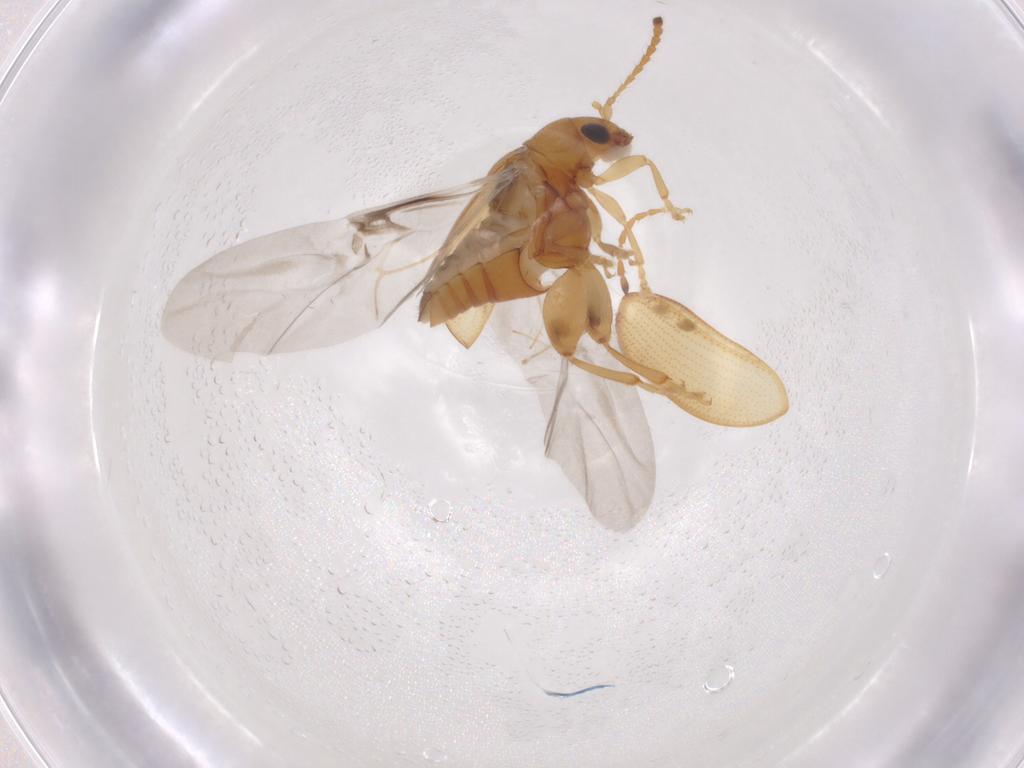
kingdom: Animalia
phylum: Arthropoda
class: Insecta
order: Coleoptera
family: Chrysomelidae
